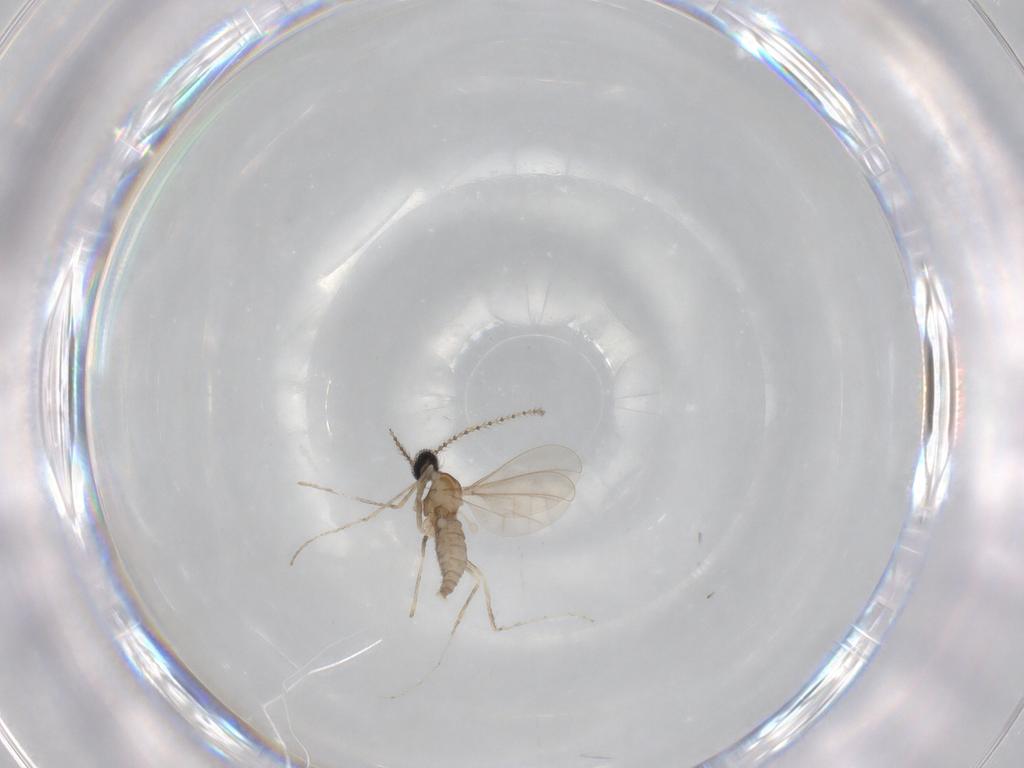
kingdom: Animalia
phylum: Arthropoda
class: Insecta
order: Diptera
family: Cecidomyiidae
